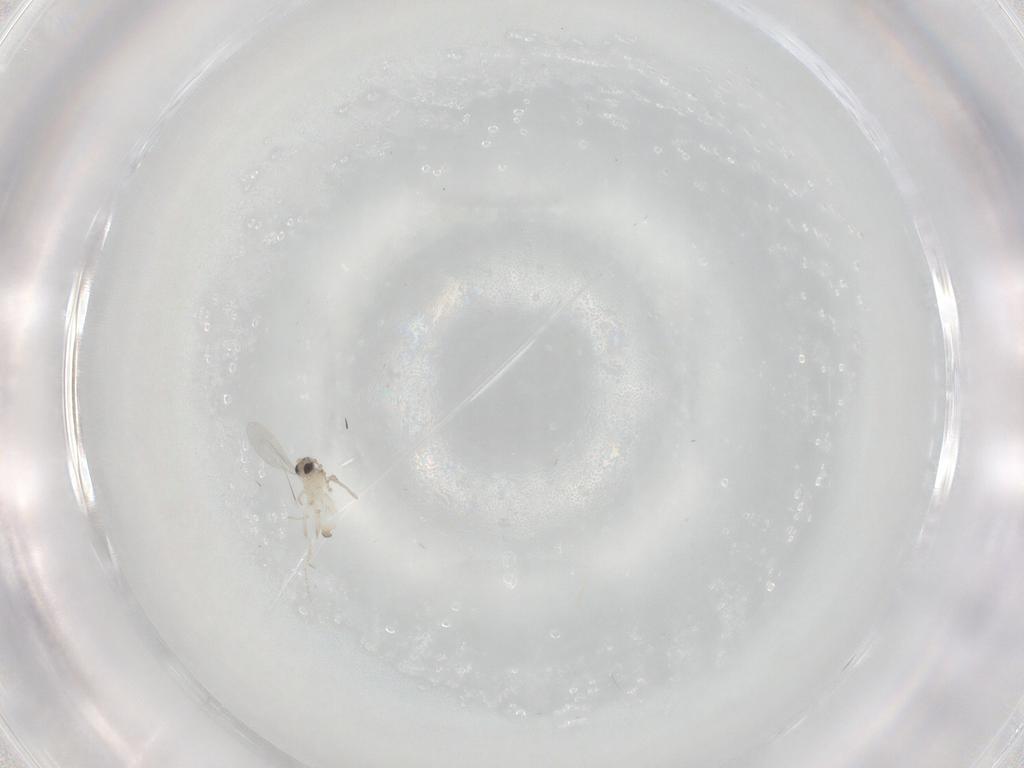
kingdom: Animalia
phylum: Arthropoda
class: Insecta
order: Diptera
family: Cecidomyiidae
